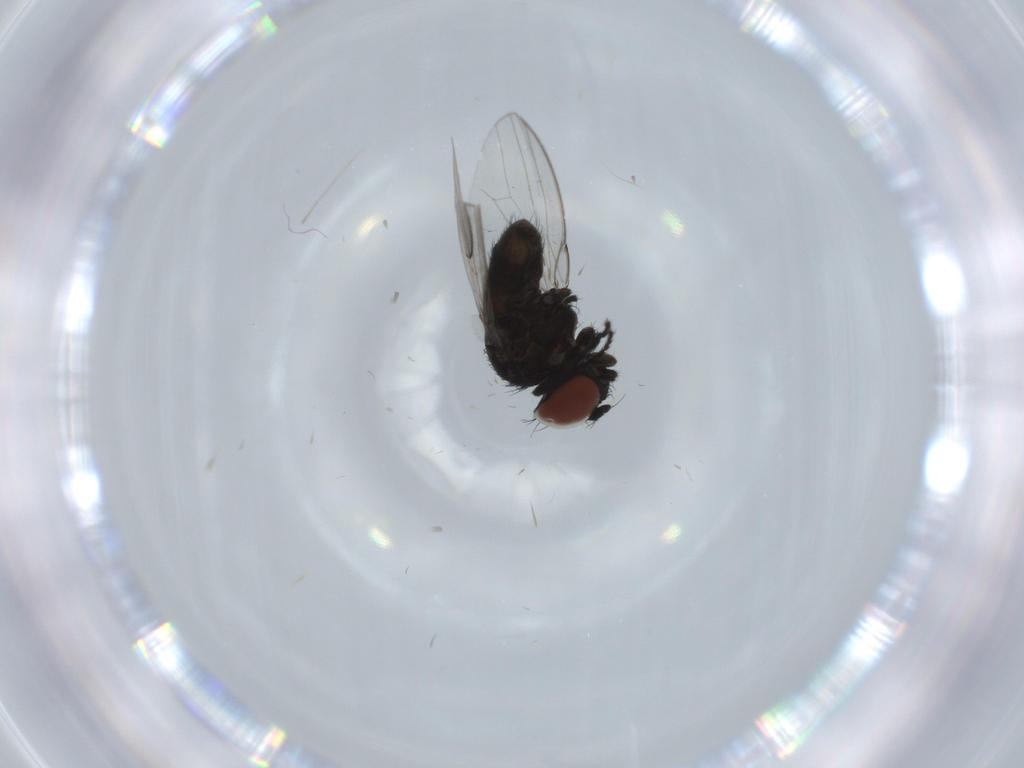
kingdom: Animalia
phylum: Arthropoda
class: Insecta
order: Diptera
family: Milichiidae
